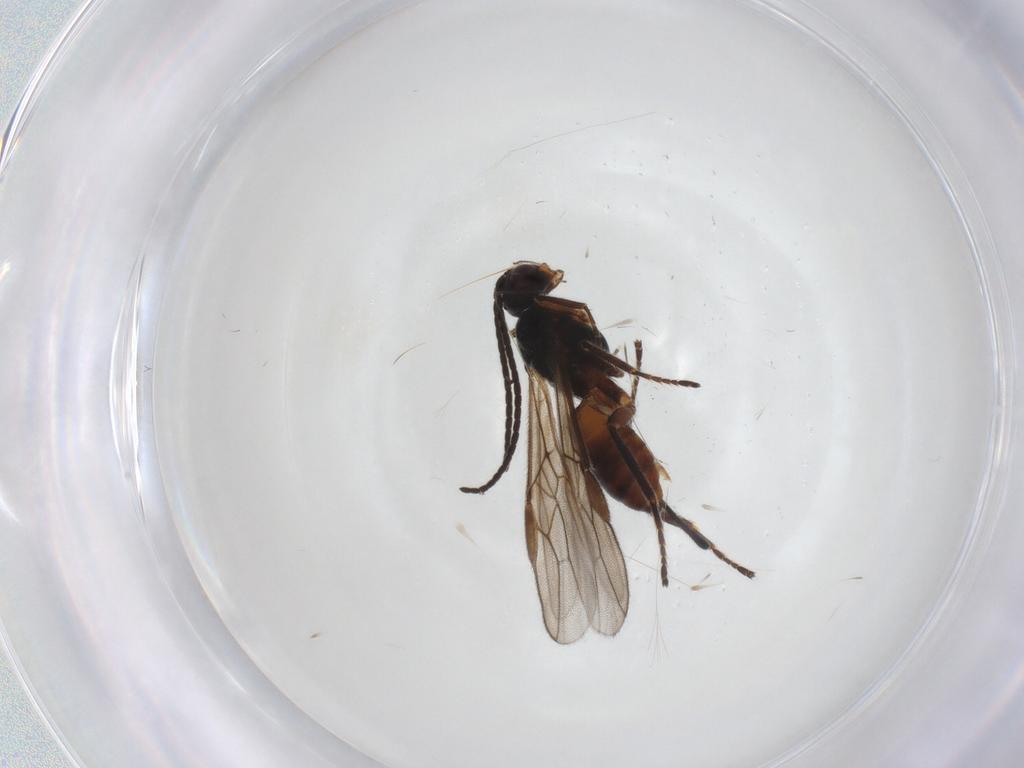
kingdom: Animalia
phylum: Arthropoda
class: Insecta
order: Hymenoptera
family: Braconidae
